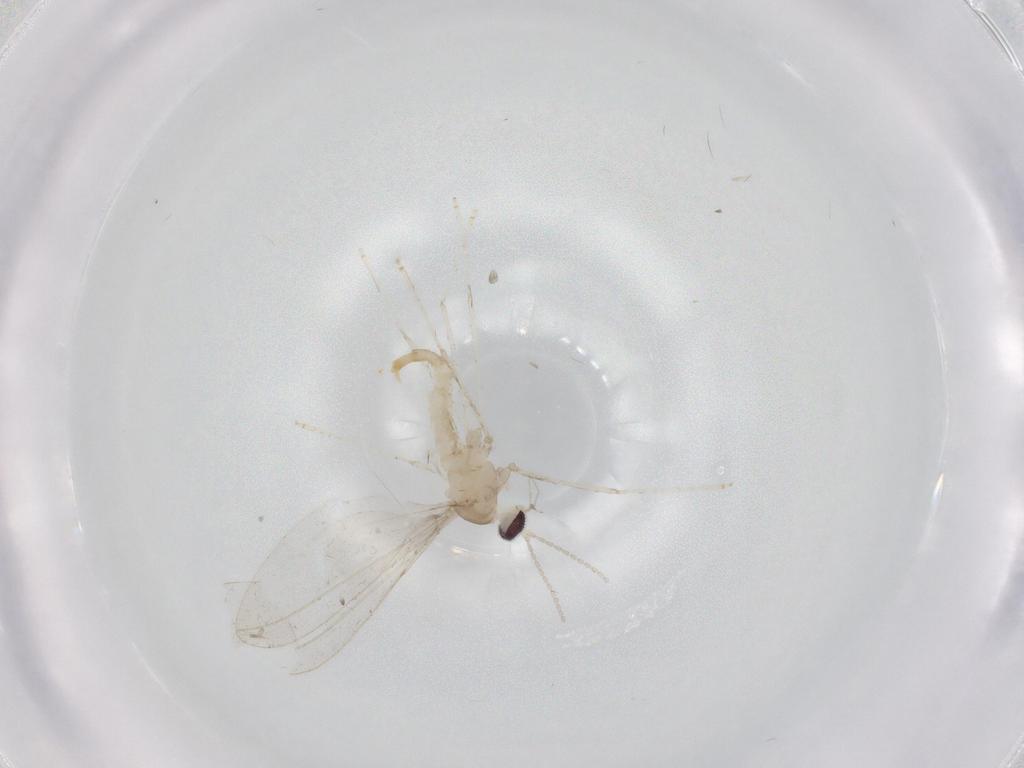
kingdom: Animalia
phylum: Arthropoda
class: Insecta
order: Diptera
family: Cecidomyiidae
